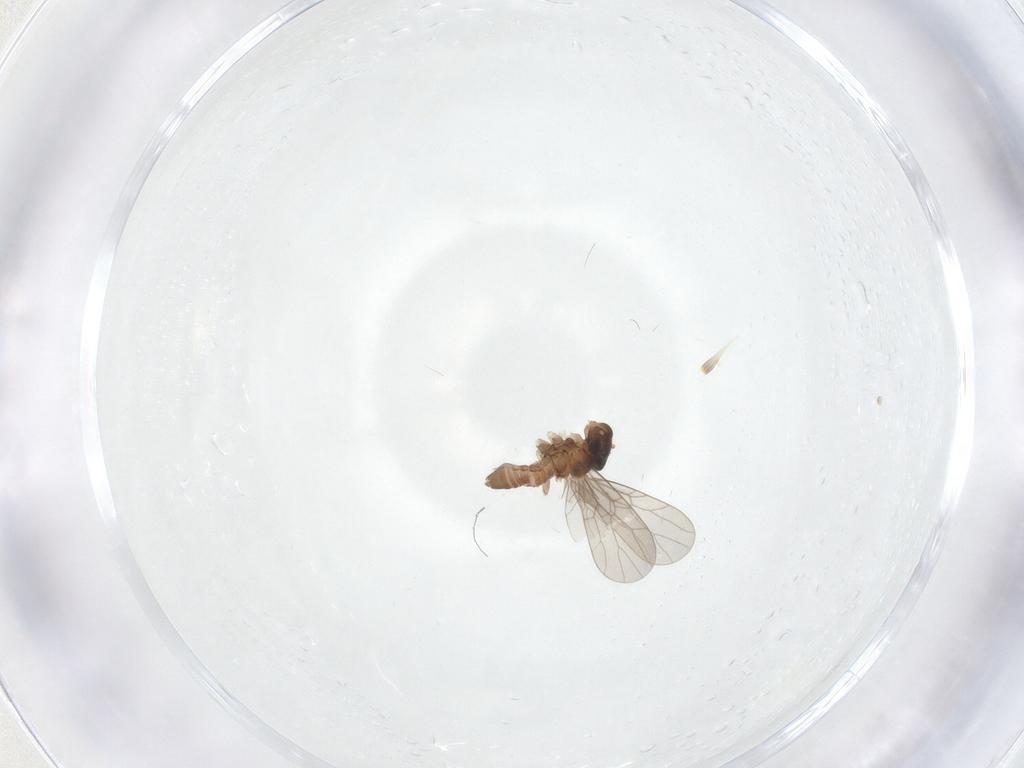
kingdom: Animalia
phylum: Arthropoda
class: Insecta
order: Psocodea
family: Lepidopsocidae
